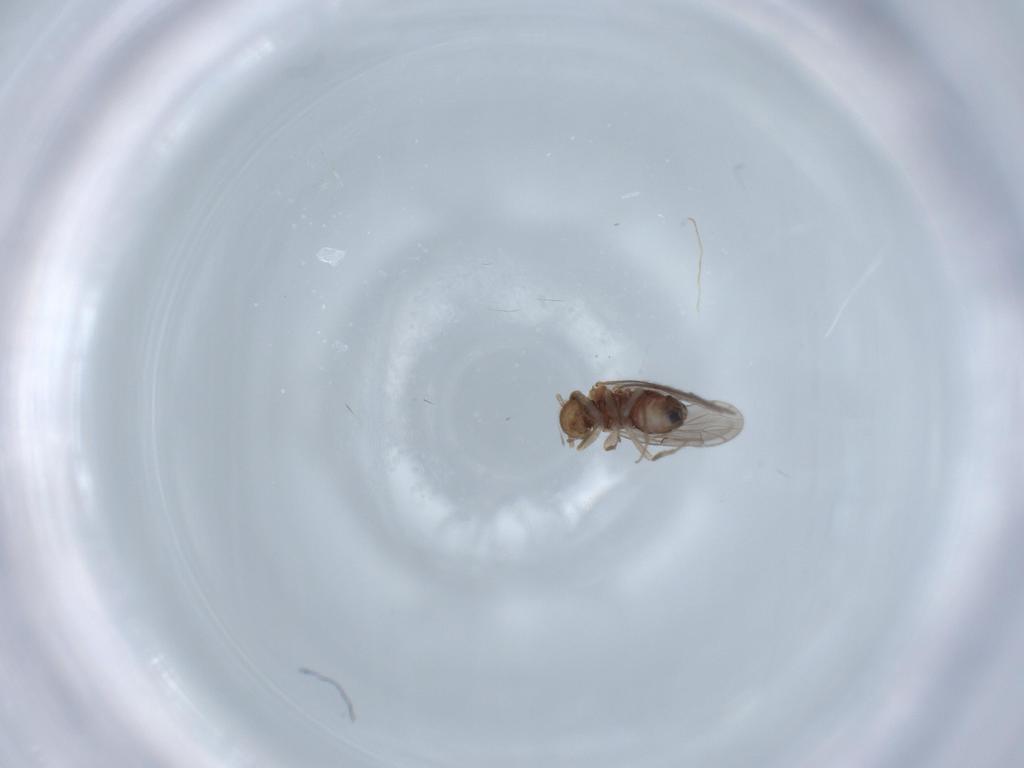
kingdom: Animalia
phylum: Arthropoda
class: Insecta
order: Psocodea
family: Ectopsocidae
